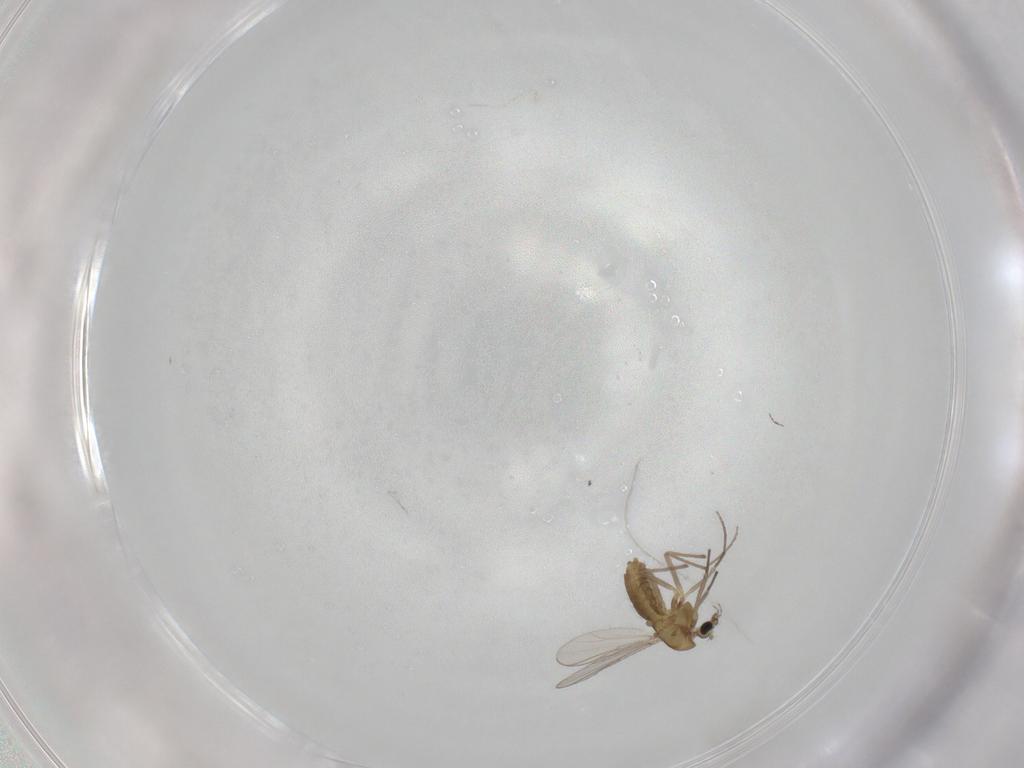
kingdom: Animalia
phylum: Arthropoda
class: Insecta
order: Diptera
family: Chironomidae
